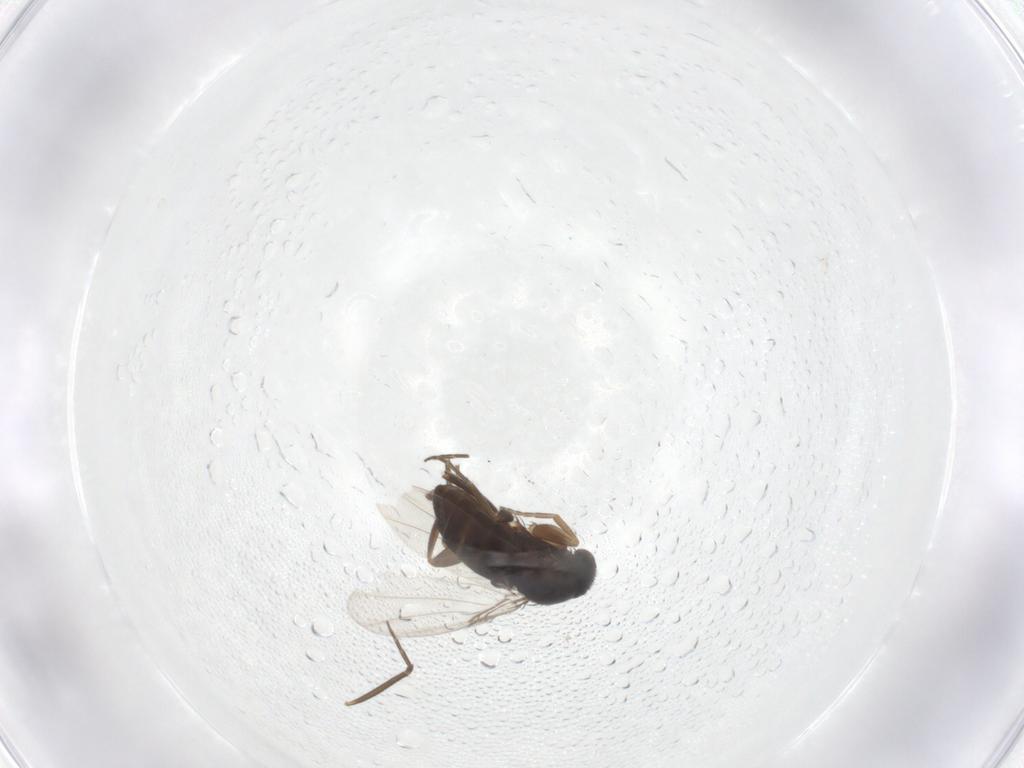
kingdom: Animalia
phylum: Arthropoda
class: Insecta
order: Diptera
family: Phoridae
